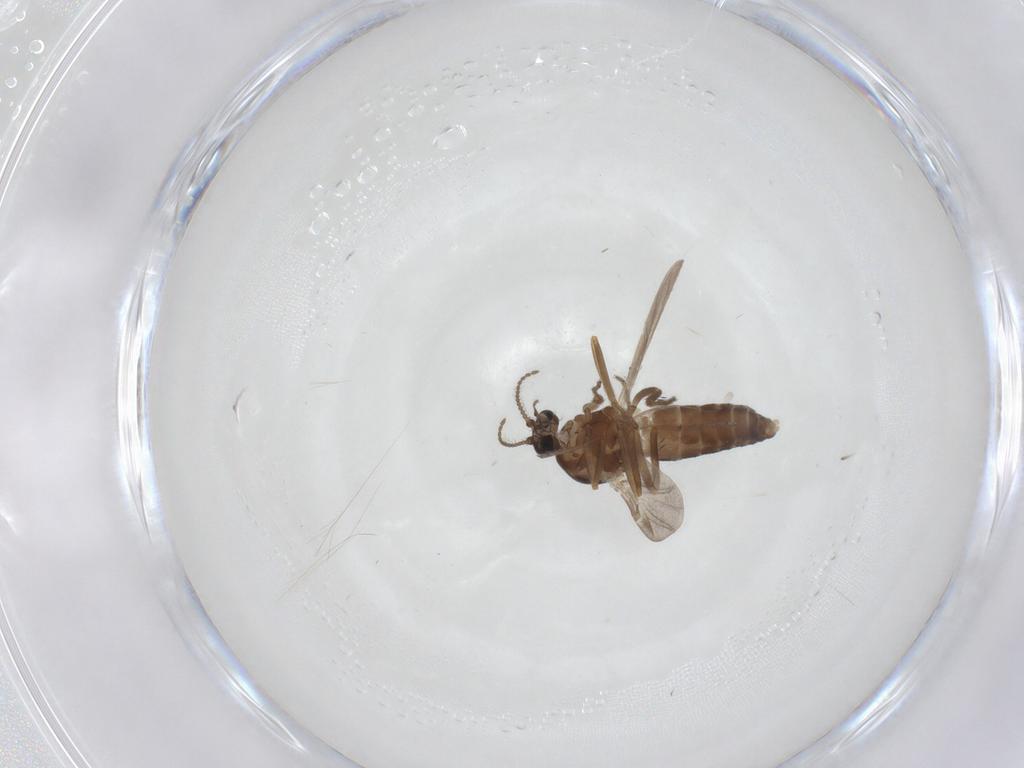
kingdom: Animalia
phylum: Arthropoda
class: Insecta
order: Diptera
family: Ceratopogonidae
